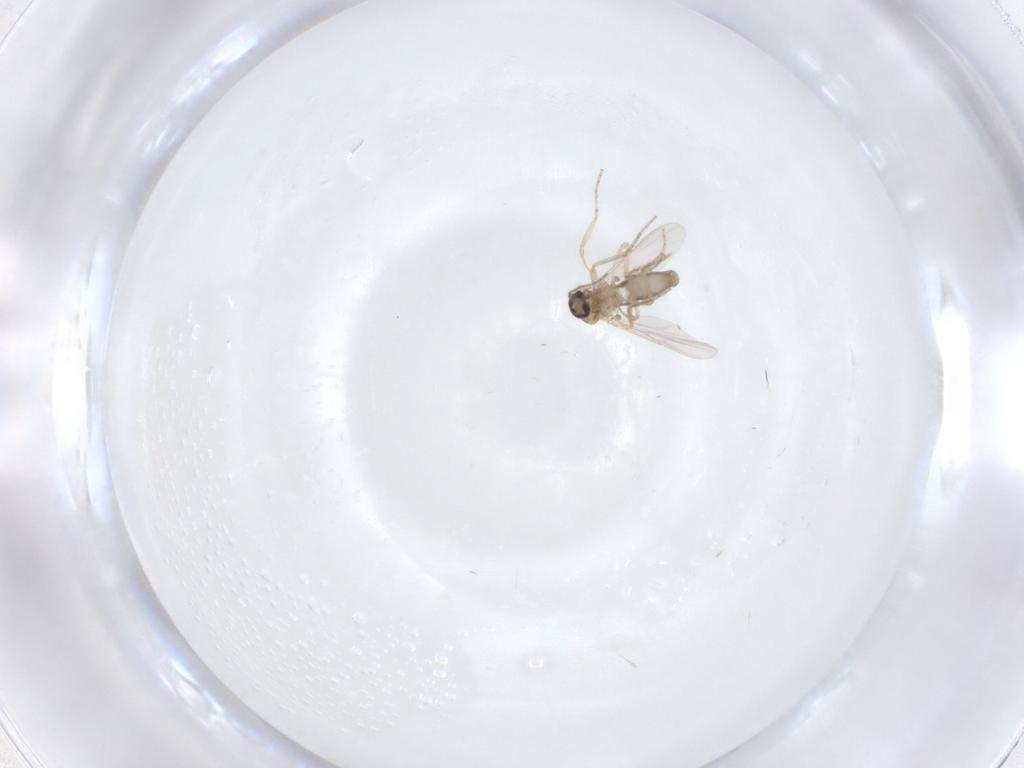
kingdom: Animalia
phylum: Arthropoda
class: Insecta
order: Diptera
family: Ceratopogonidae
